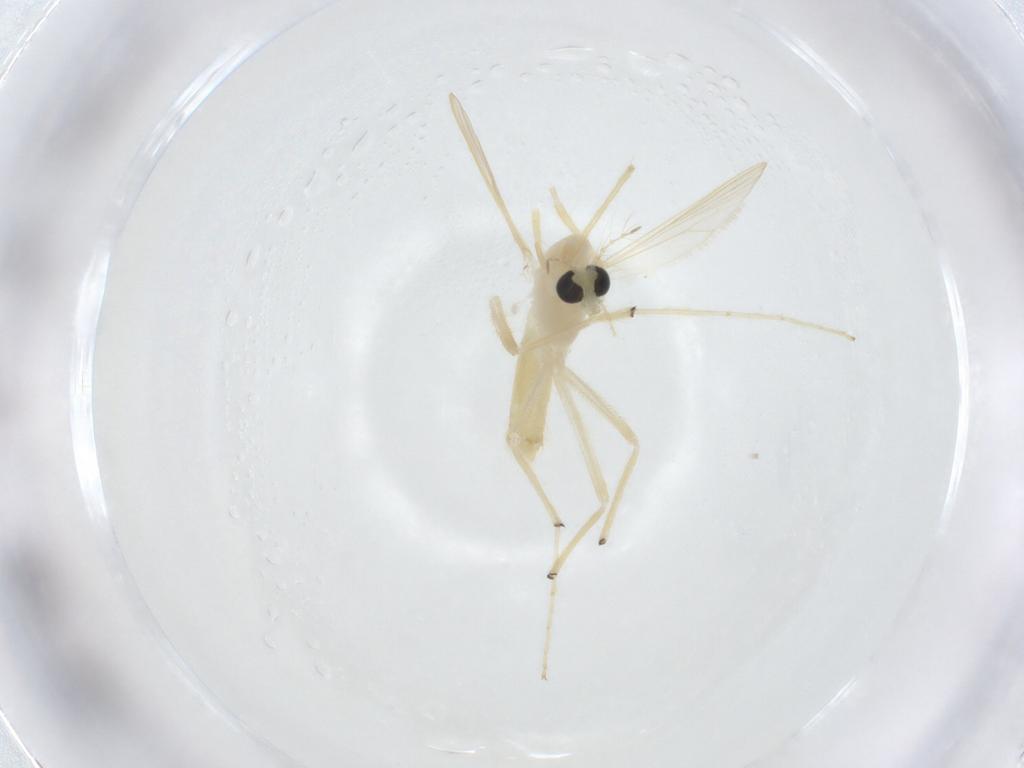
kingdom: Animalia
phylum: Arthropoda
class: Insecta
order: Diptera
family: Chironomidae
